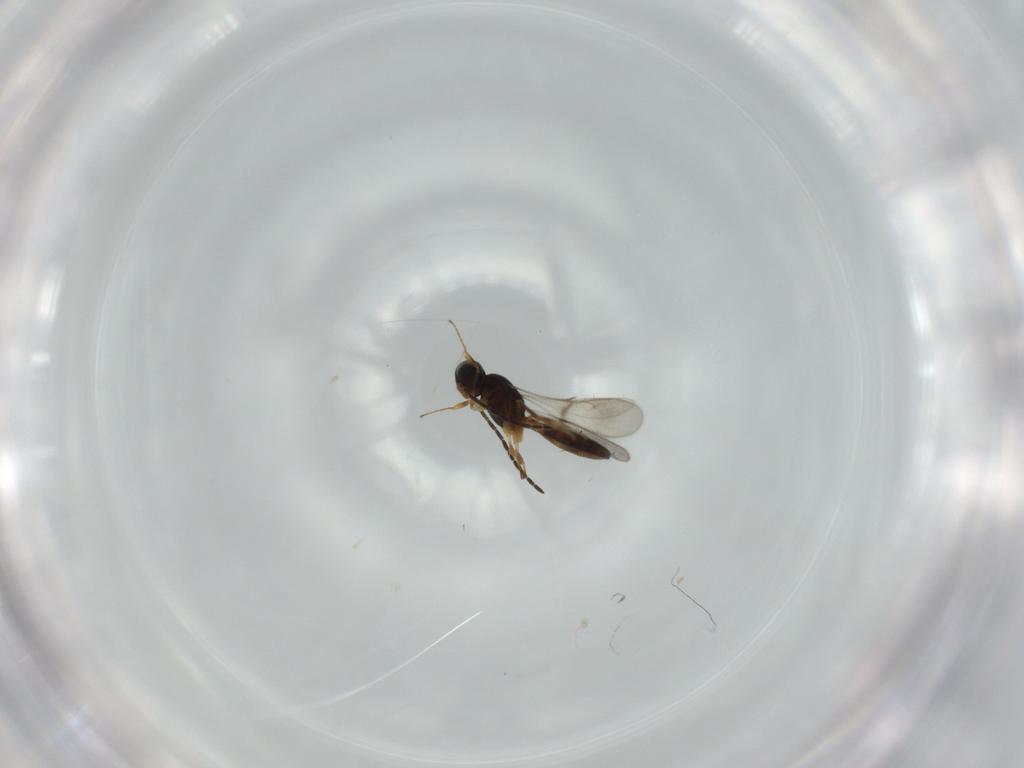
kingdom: Animalia
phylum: Arthropoda
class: Insecta
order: Hymenoptera
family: Scelionidae
